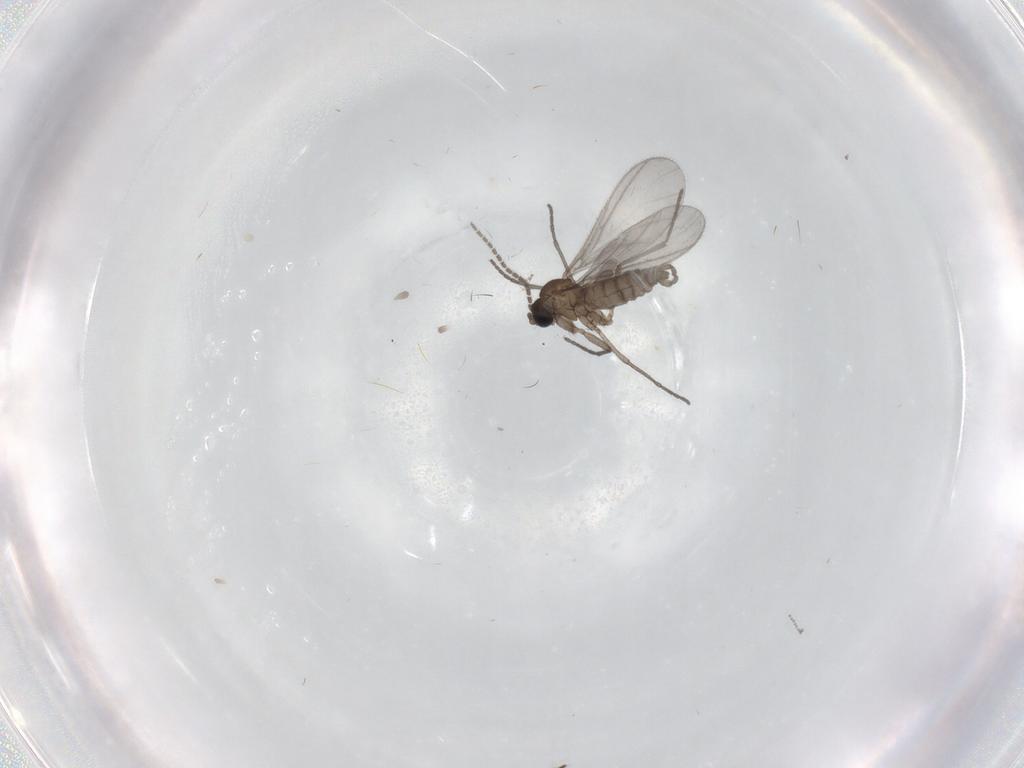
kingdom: Animalia
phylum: Arthropoda
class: Insecta
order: Diptera
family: Sciaridae
